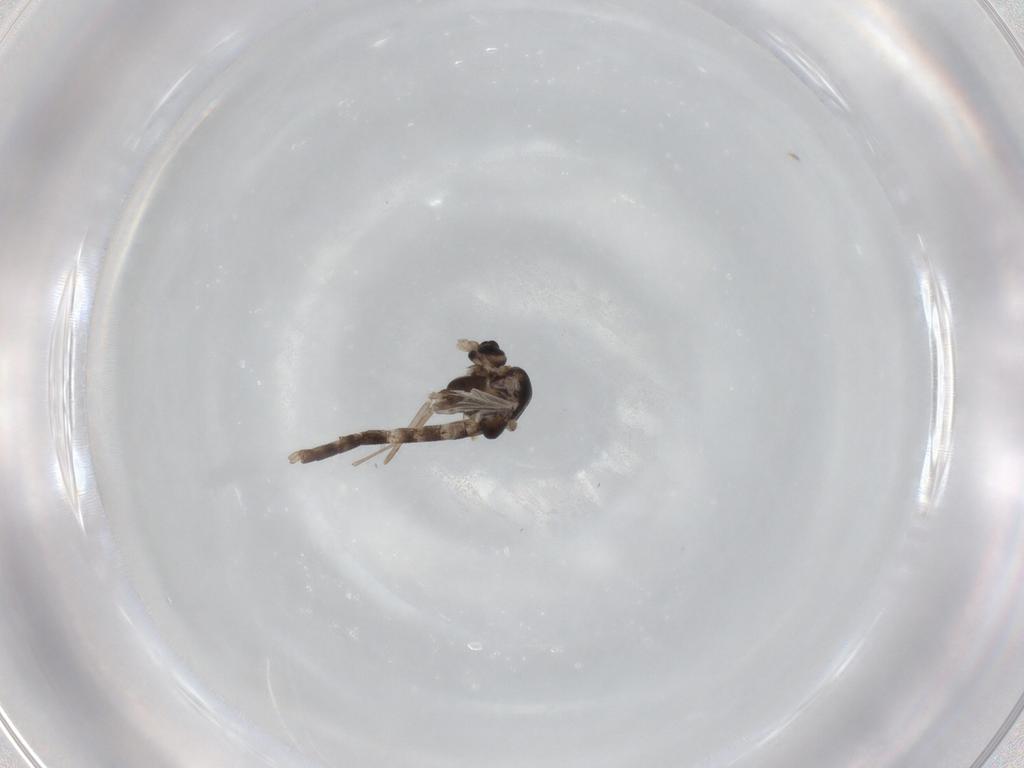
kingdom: Animalia
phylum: Arthropoda
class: Insecta
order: Diptera
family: Chironomidae
